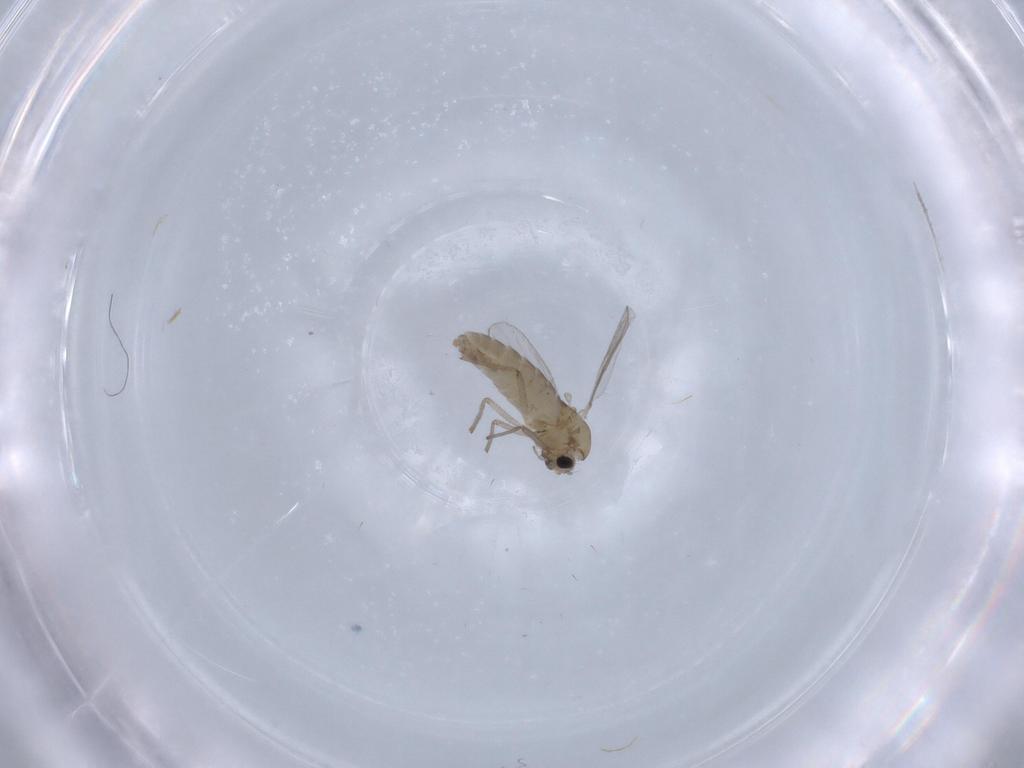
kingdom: Animalia
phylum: Arthropoda
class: Insecta
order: Diptera
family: Chironomidae
